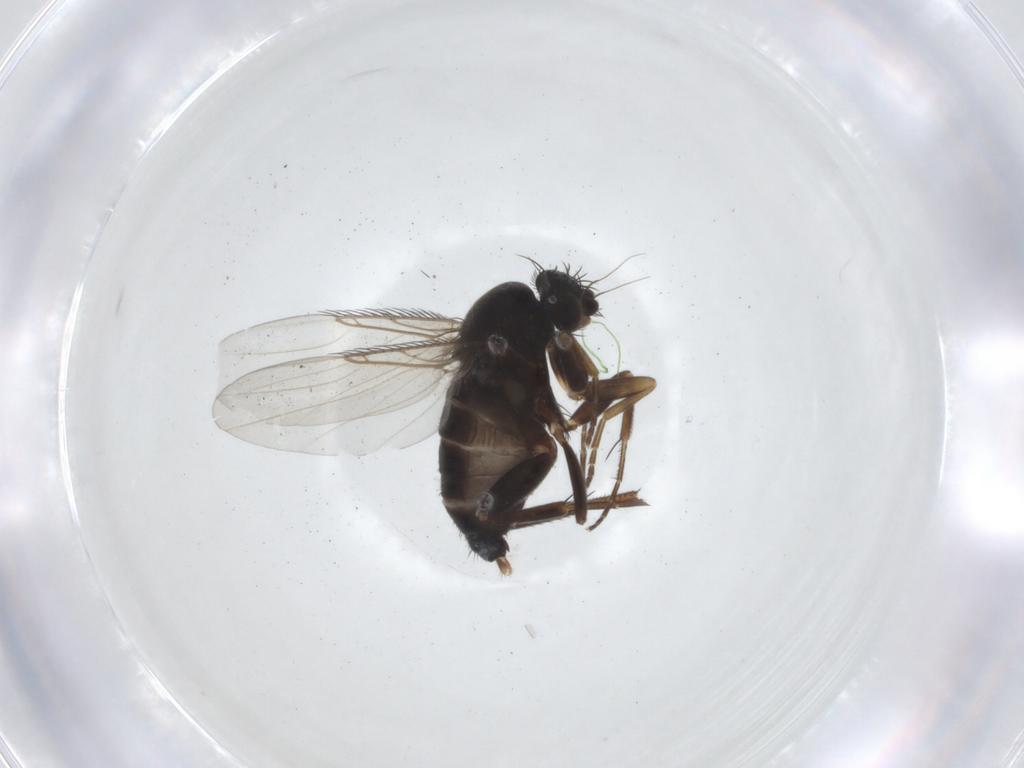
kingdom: Animalia
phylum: Arthropoda
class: Insecta
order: Diptera
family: Phoridae
